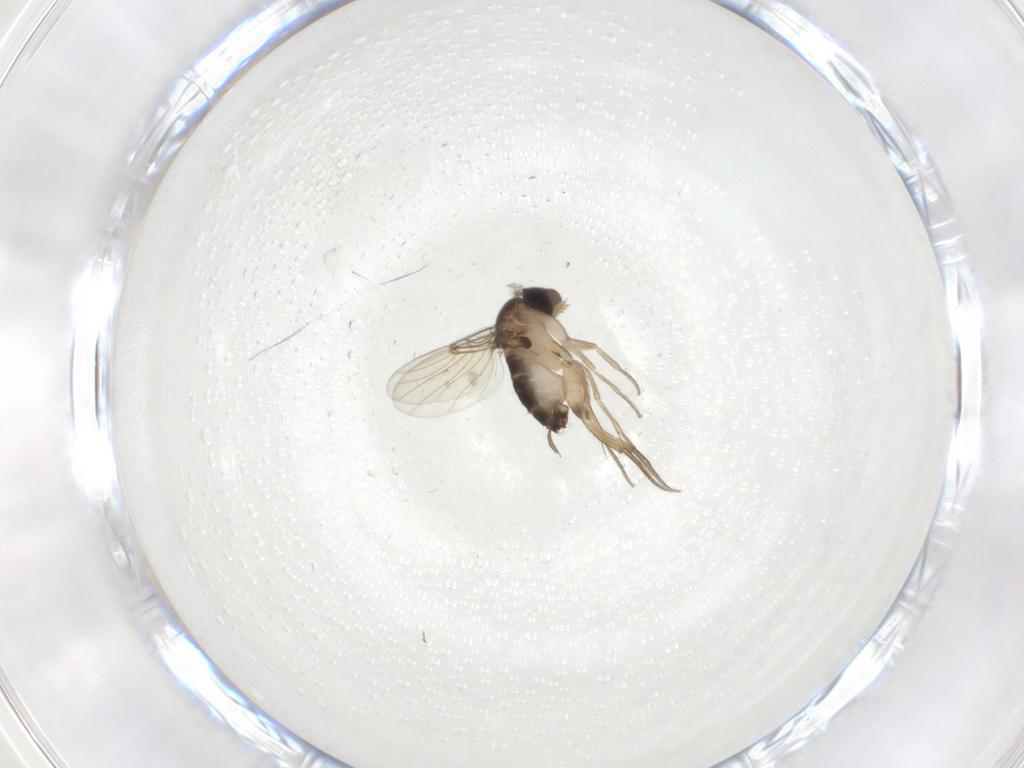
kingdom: Animalia
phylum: Arthropoda
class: Insecta
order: Diptera
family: Cecidomyiidae
